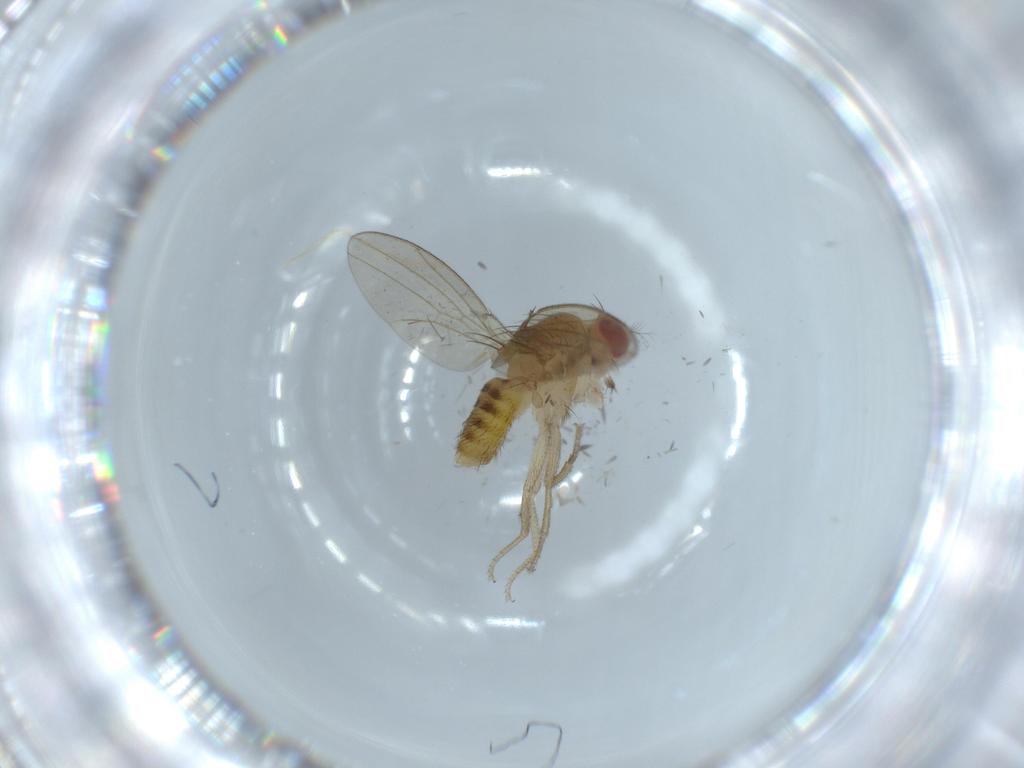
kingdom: Animalia
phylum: Arthropoda
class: Insecta
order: Diptera
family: Drosophilidae
